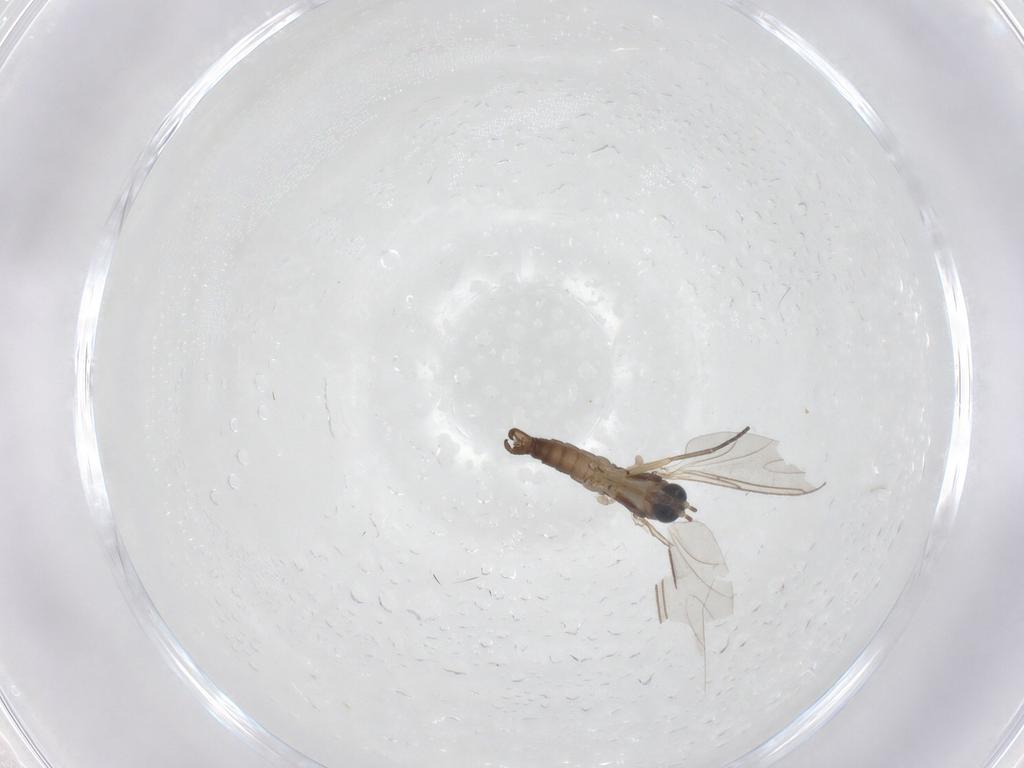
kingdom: Animalia
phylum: Arthropoda
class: Insecta
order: Diptera
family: Sciaridae
